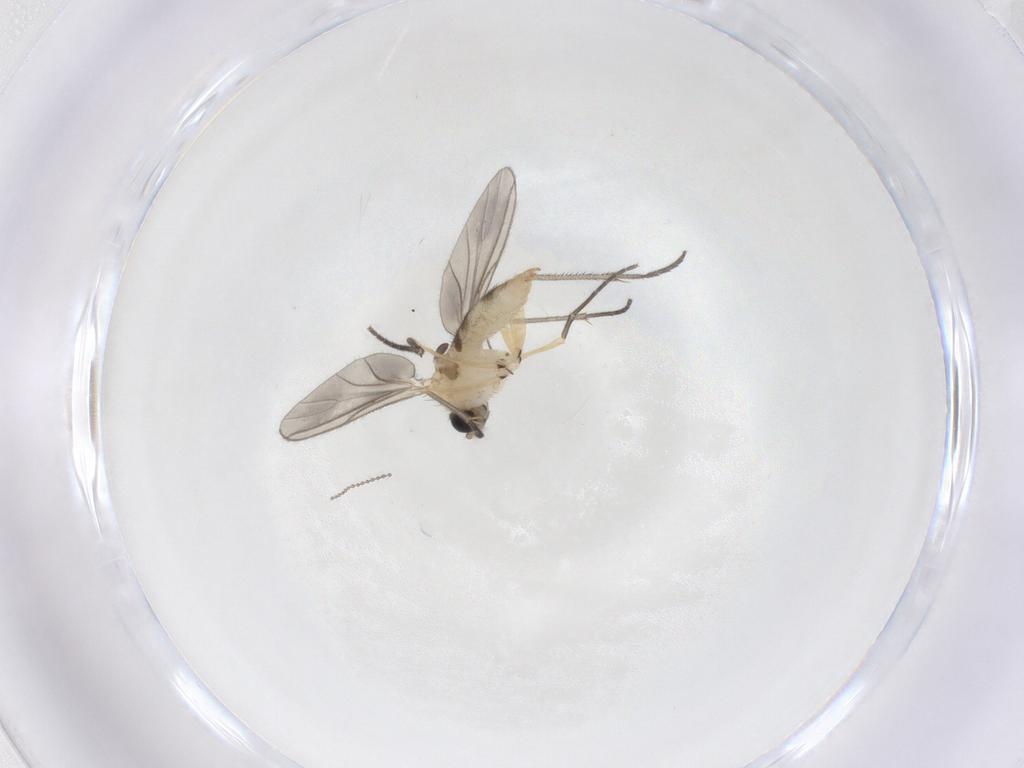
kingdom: Animalia
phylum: Arthropoda
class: Insecta
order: Diptera
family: Sciaridae
